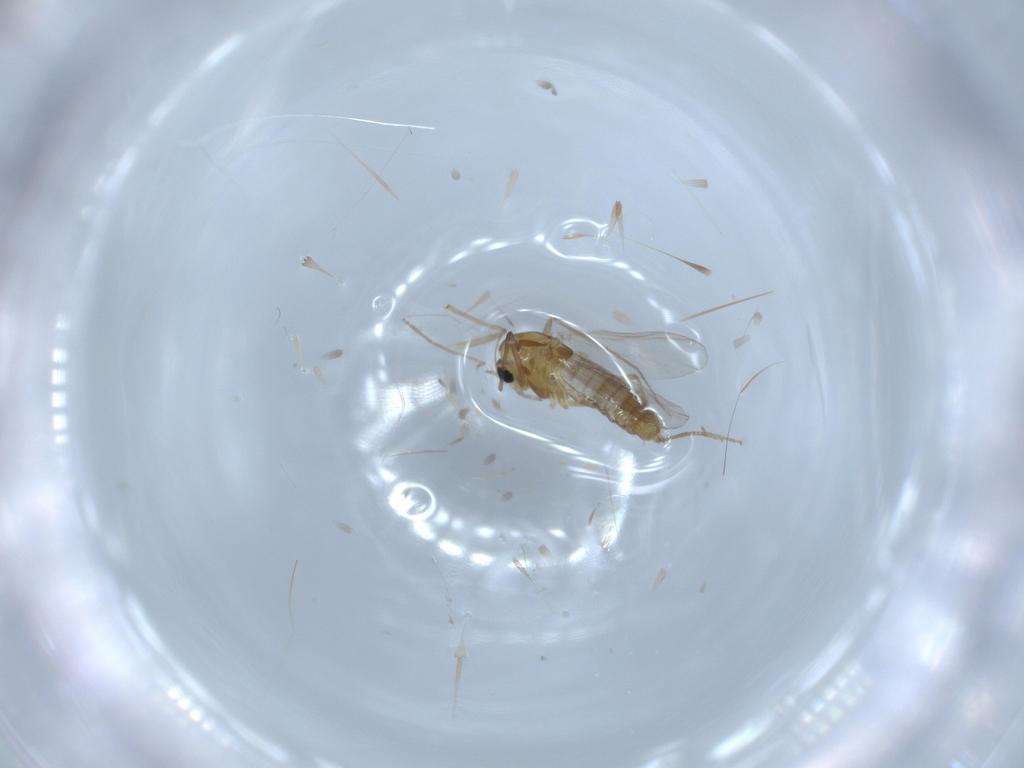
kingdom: Animalia
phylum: Arthropoda
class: Insecta
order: Diptera
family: Chironomidae
